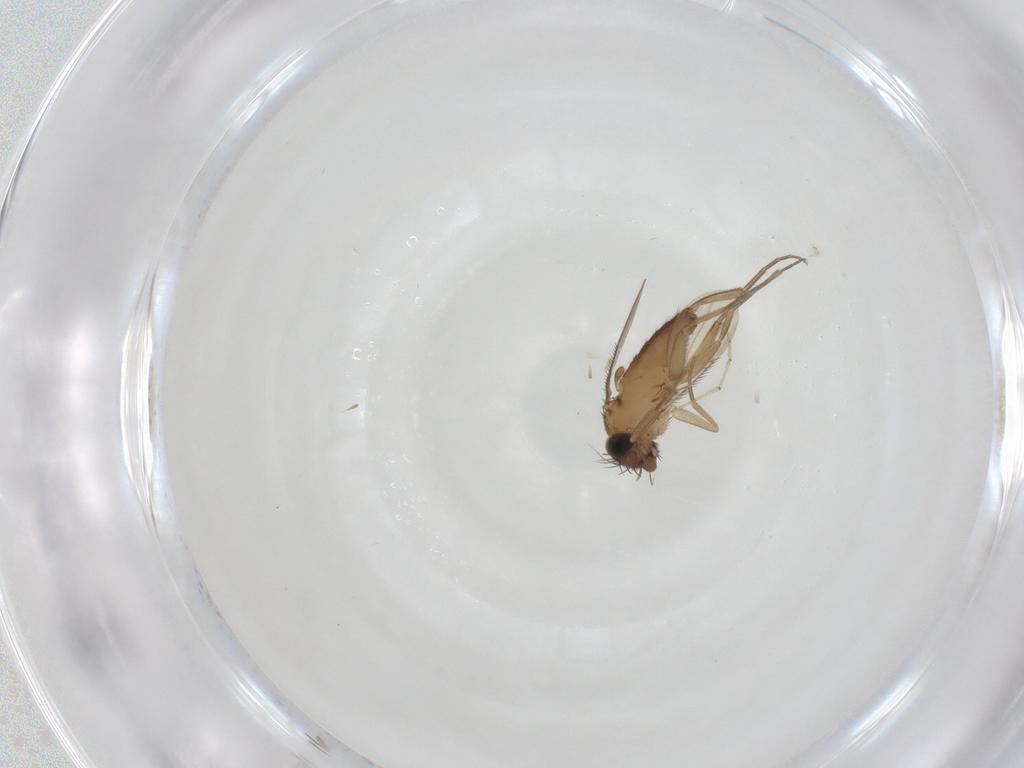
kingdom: Animalia
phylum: Arthropoda
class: Insecta
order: Diptera
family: Phoridae
